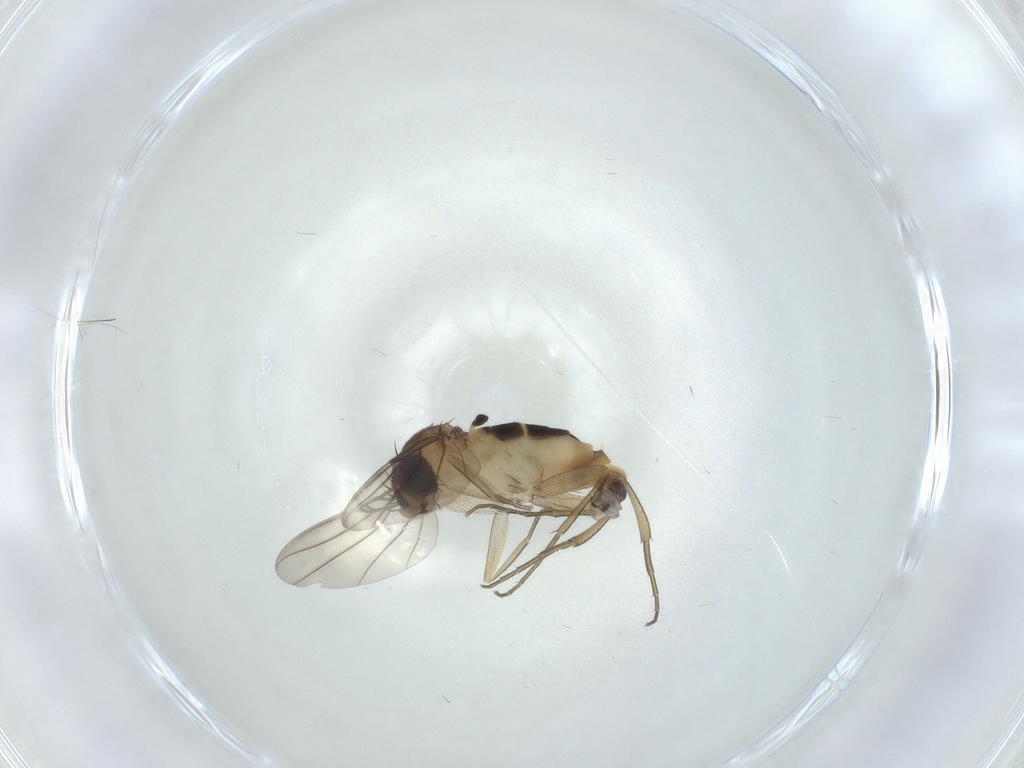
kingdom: Animalia
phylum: Arthropoda
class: Insecta
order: Diptera
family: Phoridae
